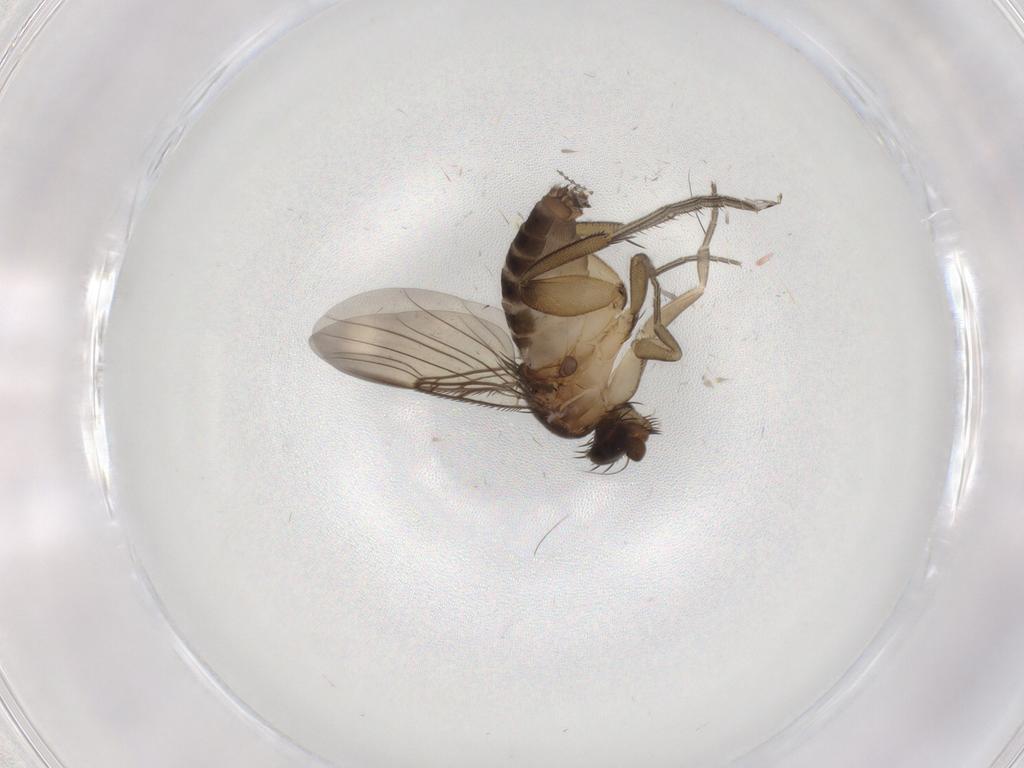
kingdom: Animalia
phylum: Arthropoda
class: Insecta
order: Diptera
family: Phoridae
